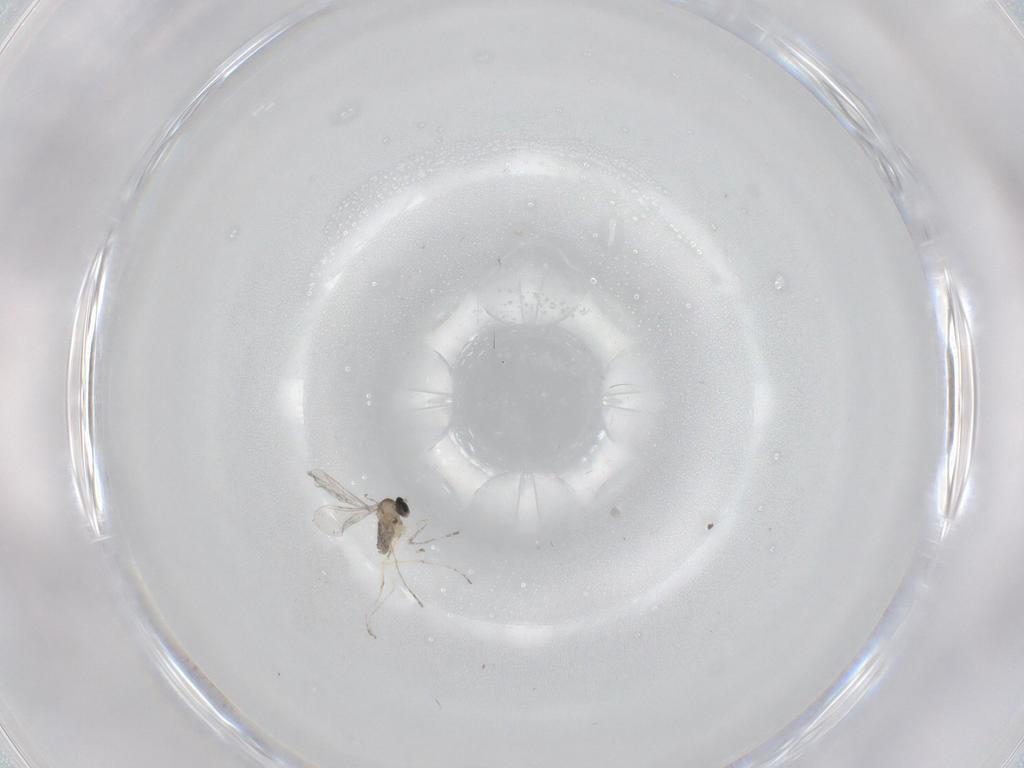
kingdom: Animalia
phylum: Arthropoda
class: Insecta
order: Diptera
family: Cecidomyiidae
